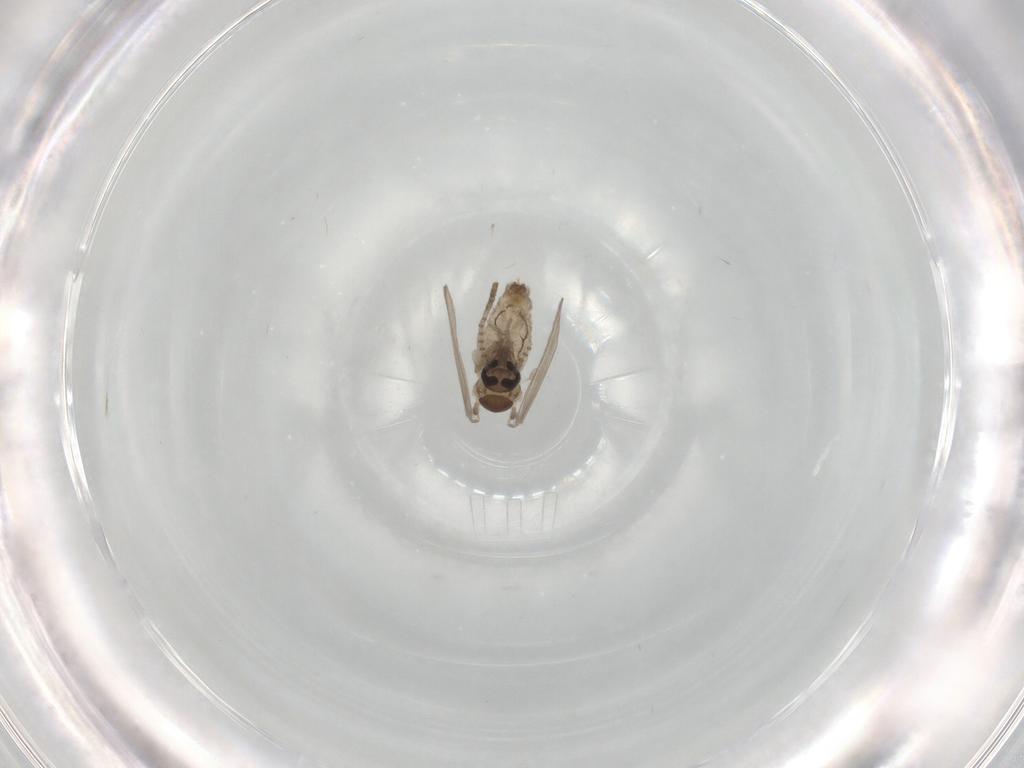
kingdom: Animalia
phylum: Arthropoda
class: Insecta
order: Diptera
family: Psychodidae
